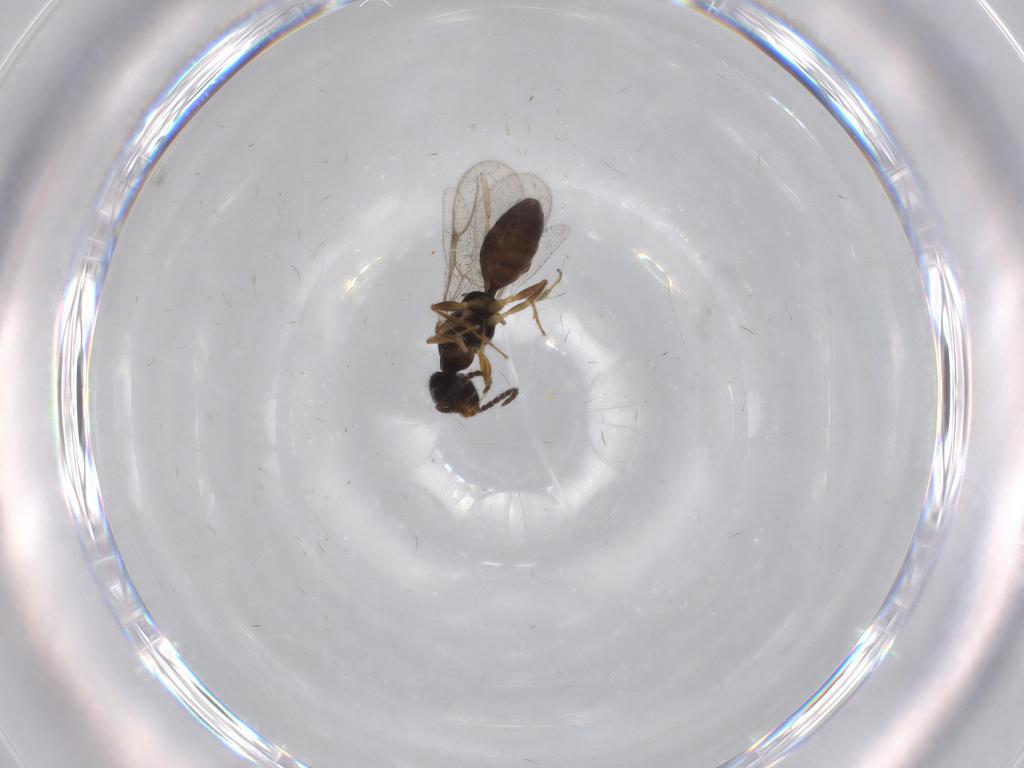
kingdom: Animalia
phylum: Arthropoda
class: Insecta
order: Hymenoptera
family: Bethylidae
